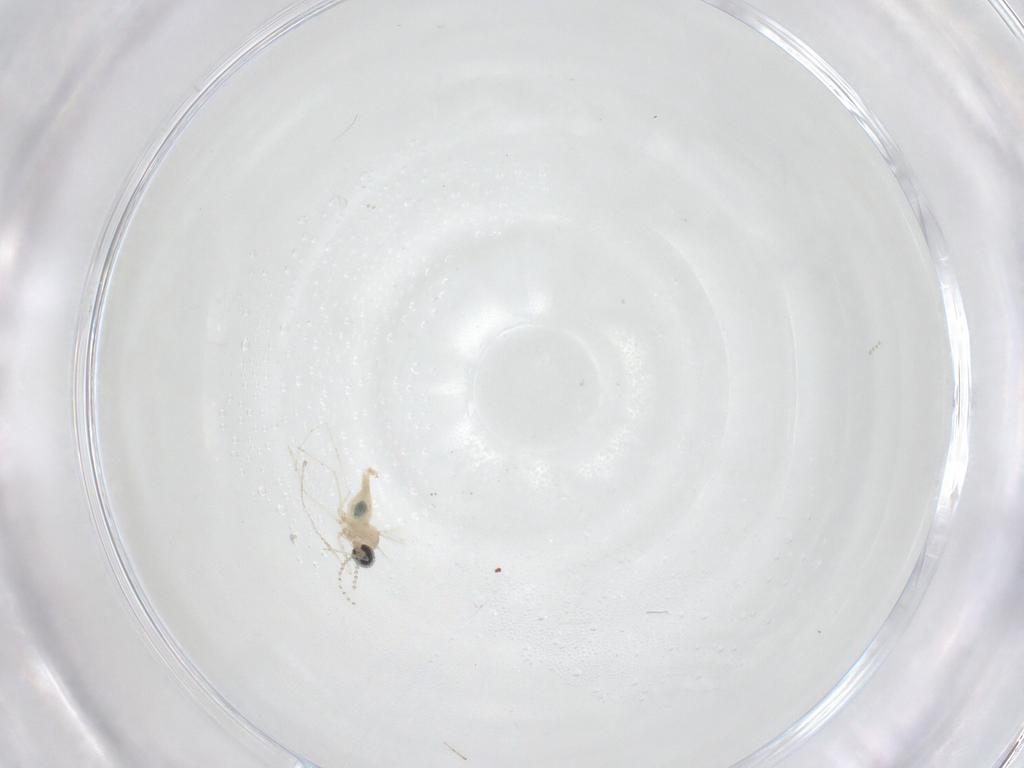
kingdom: Animalia
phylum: Arthropoda
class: Insecta
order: Diptera
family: Cecidomyiidae
